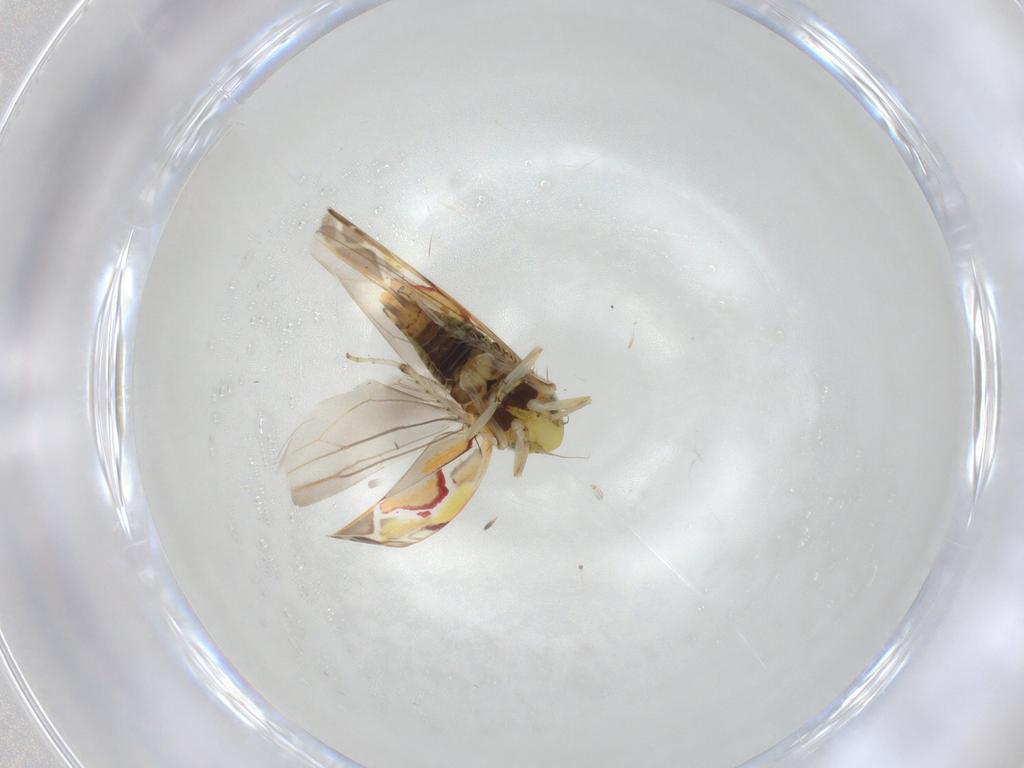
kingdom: Animalia
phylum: Arthropoda
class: Insecta
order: Hemiptera
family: Cicadellidae
